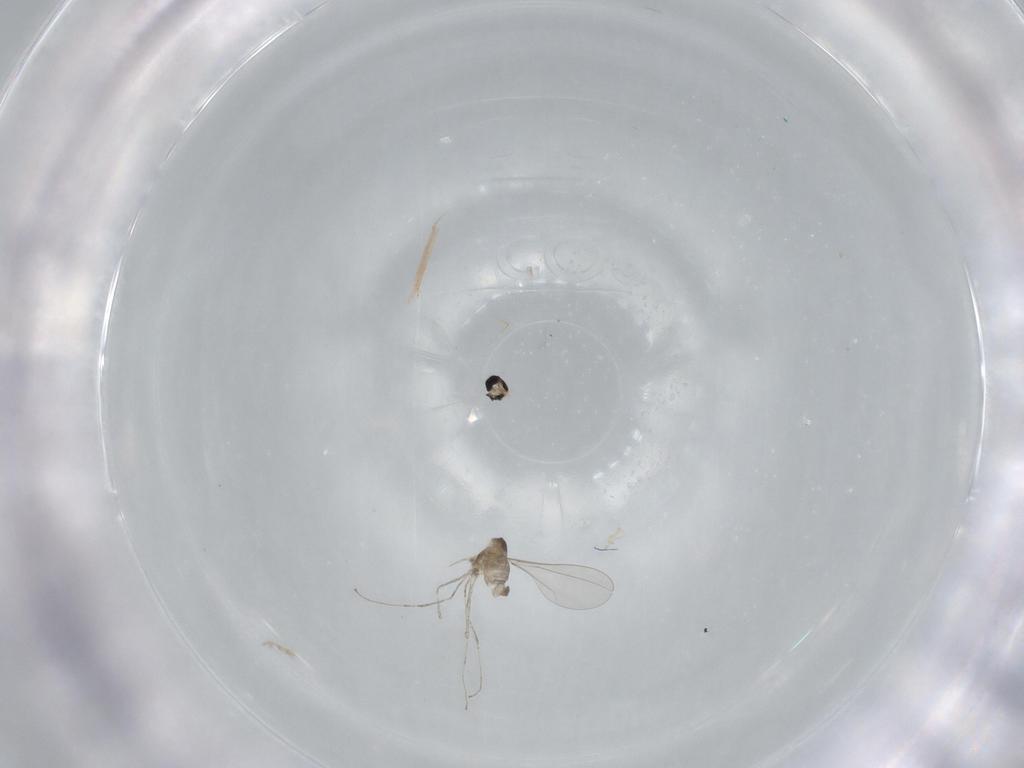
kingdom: Animalia
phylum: Arthropoda
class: Insecta
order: Diptera
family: Cecidomyiidae
